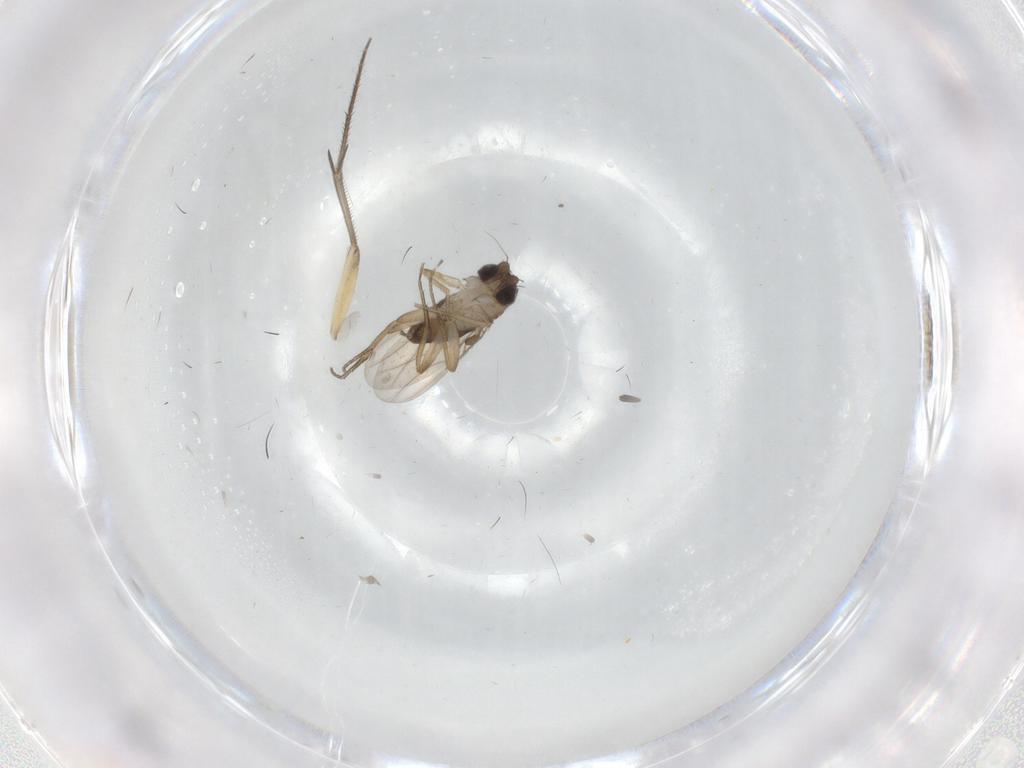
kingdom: Animalia
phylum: Arthropoda
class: Insecta
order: Diptera
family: Mycetophilidae
